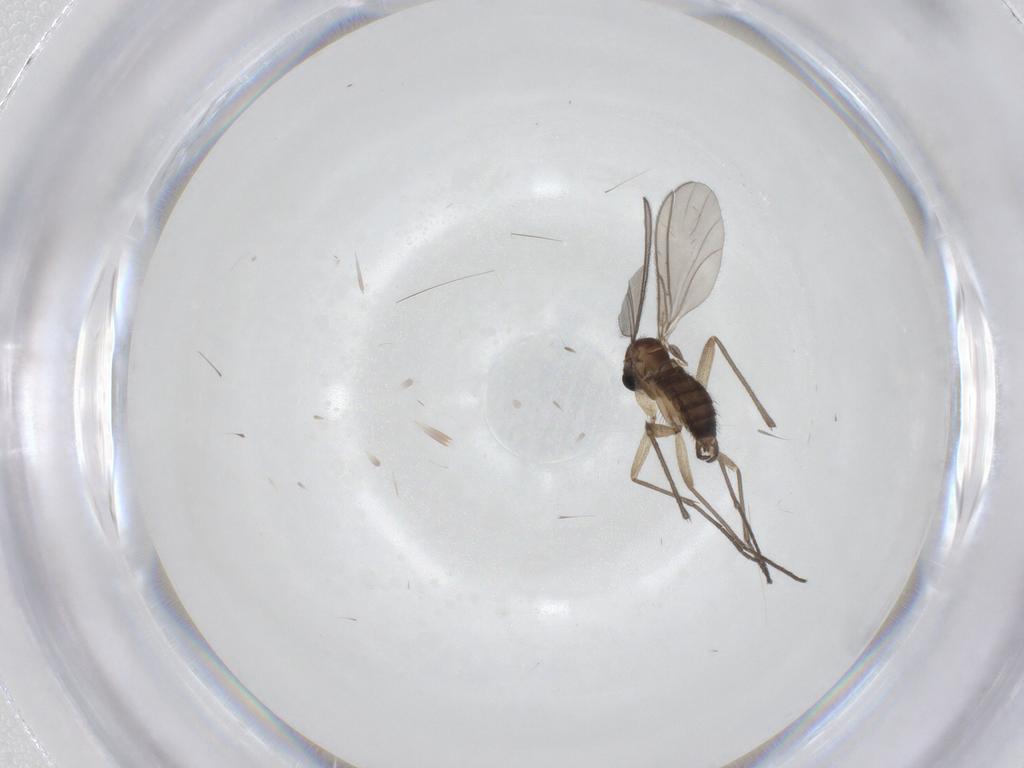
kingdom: Animalia
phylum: Arthropoda
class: Insecta
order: Diptera
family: Sciaridae
